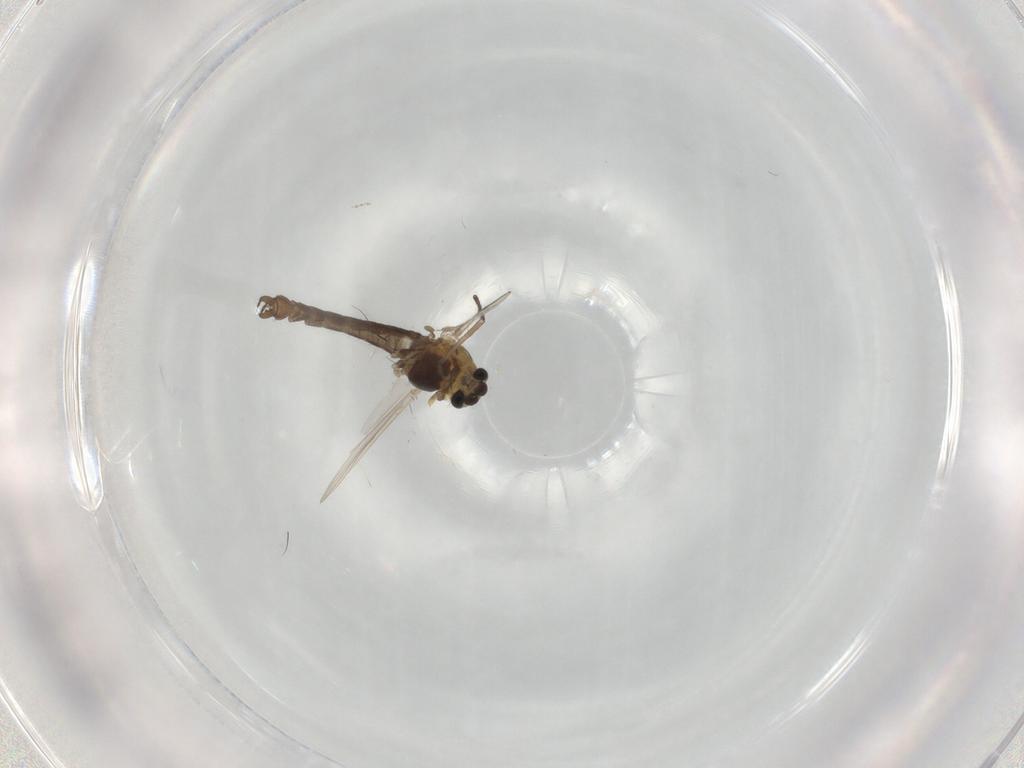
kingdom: Animalia
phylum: Arthropoda
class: Insecta
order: Diptera
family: Chironomidae
